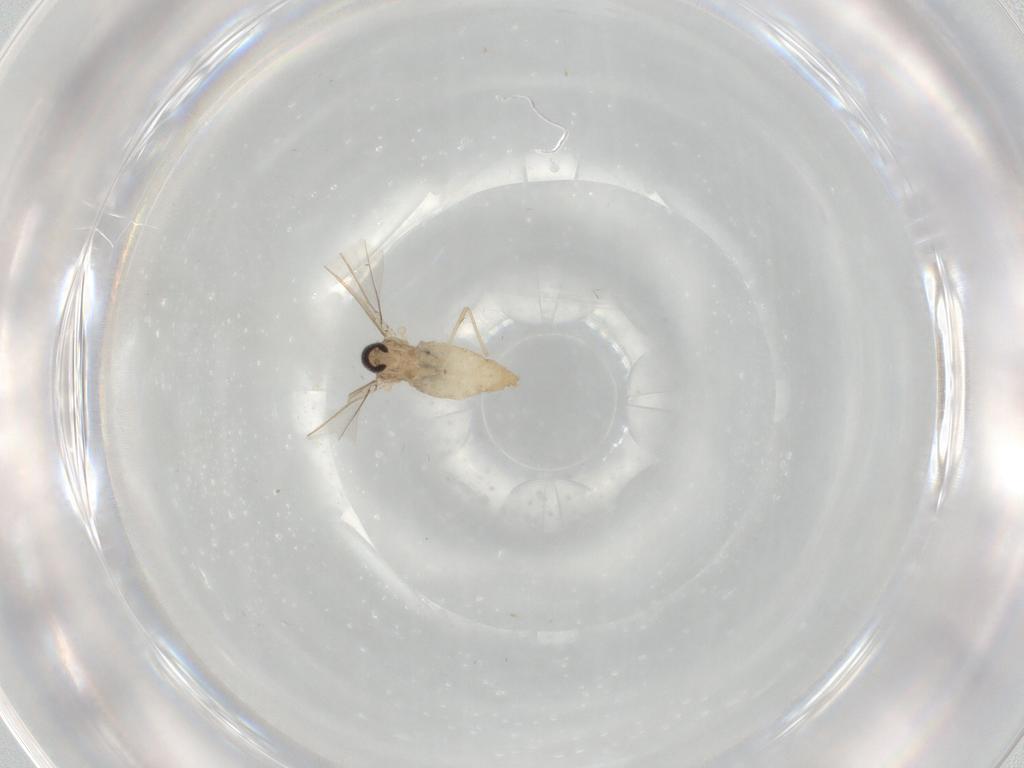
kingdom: Animalia
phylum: Arthropoda
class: Insecta
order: Diptera
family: Cecidomyiidae
